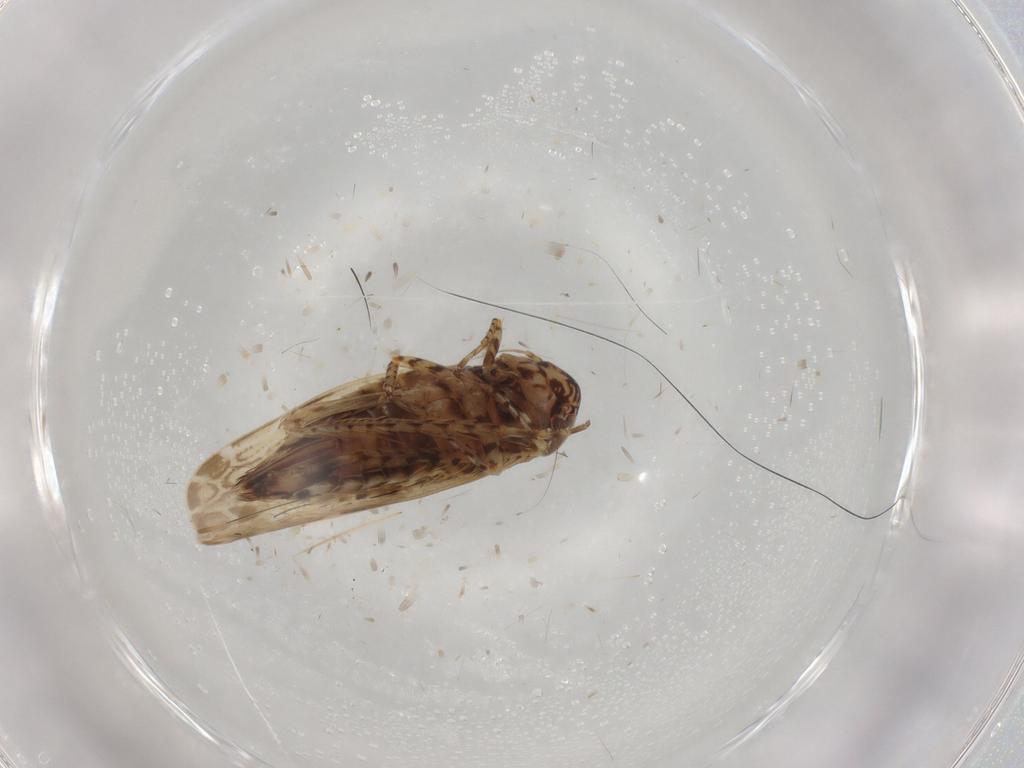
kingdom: Animalia
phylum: Arthropoda
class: Insecta
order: Hemiptera
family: Cicadellidae
